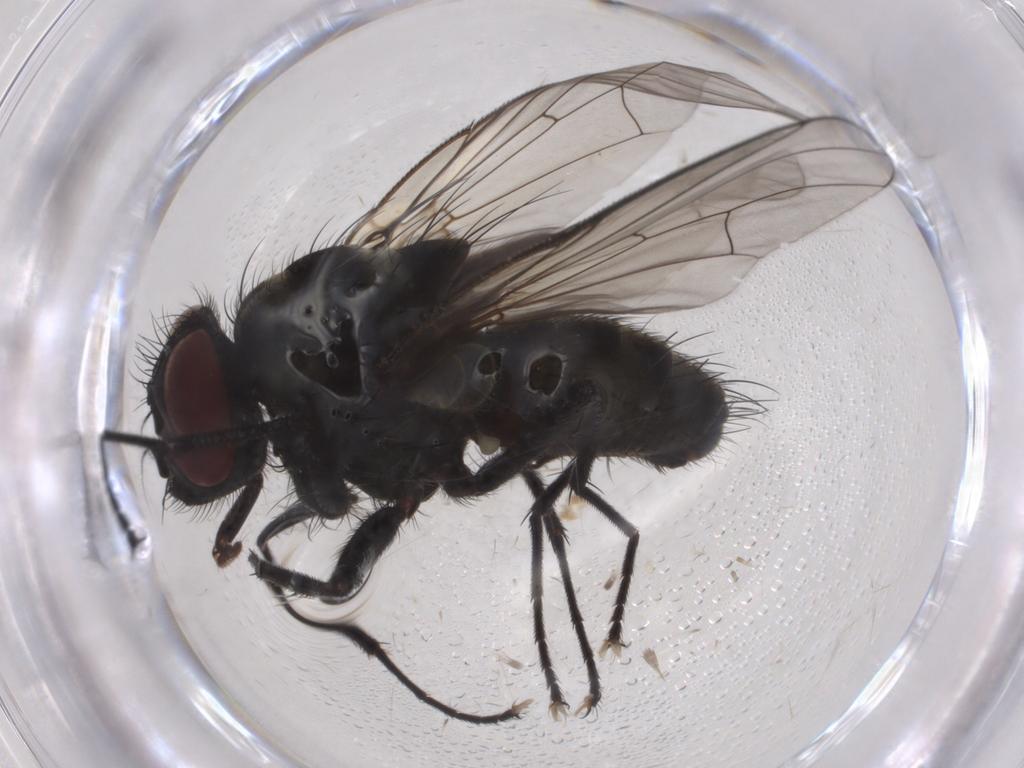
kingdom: Animalia
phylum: Arthropoda
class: Insecta
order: Diptera
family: Muscidae
